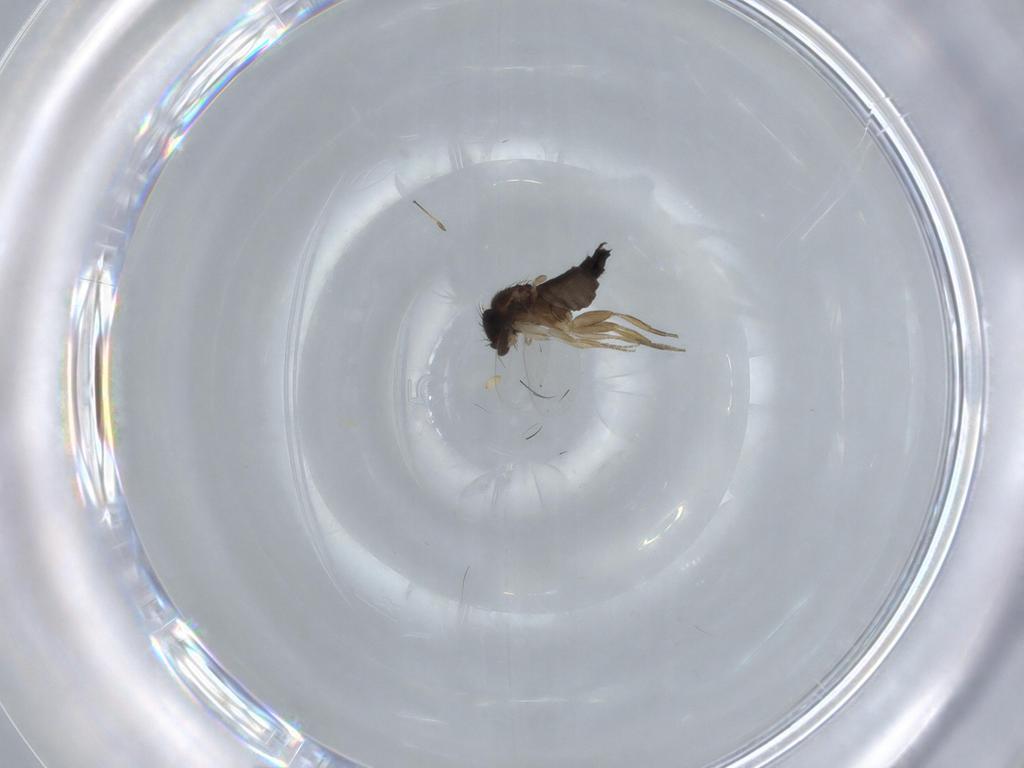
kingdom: Animalia
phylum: Arthropoda
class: Insecta
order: Diptera
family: Phoridae
